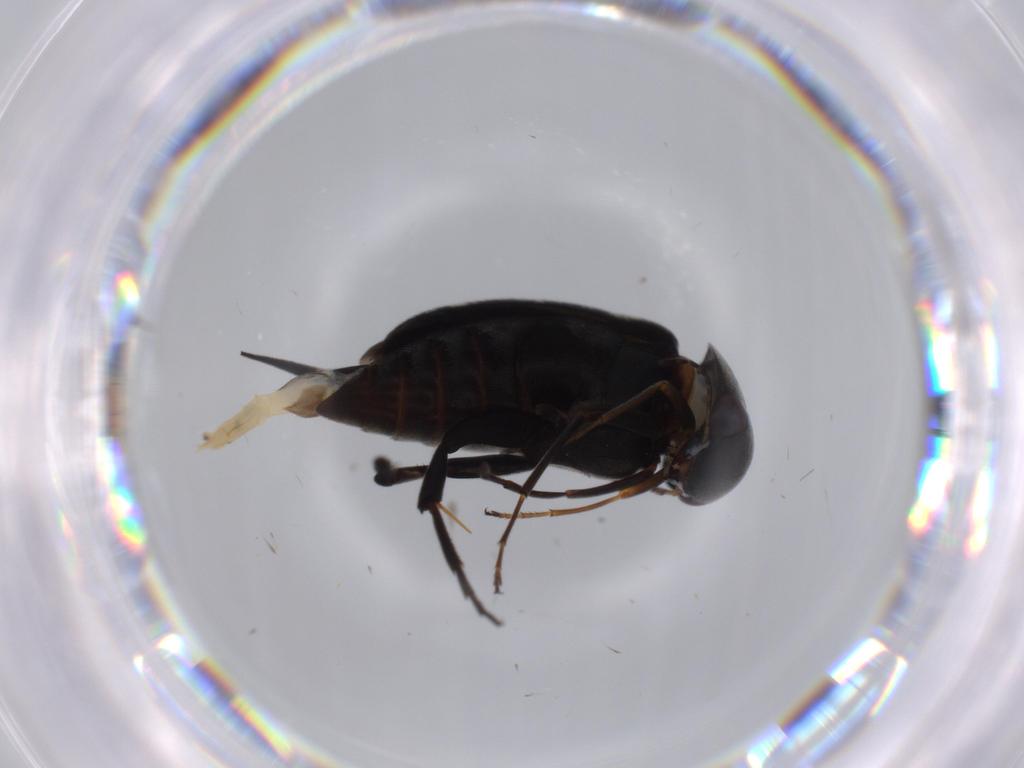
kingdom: Animalia
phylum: Arthropoda
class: Insecta
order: Coleoptera
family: Mordellidae
